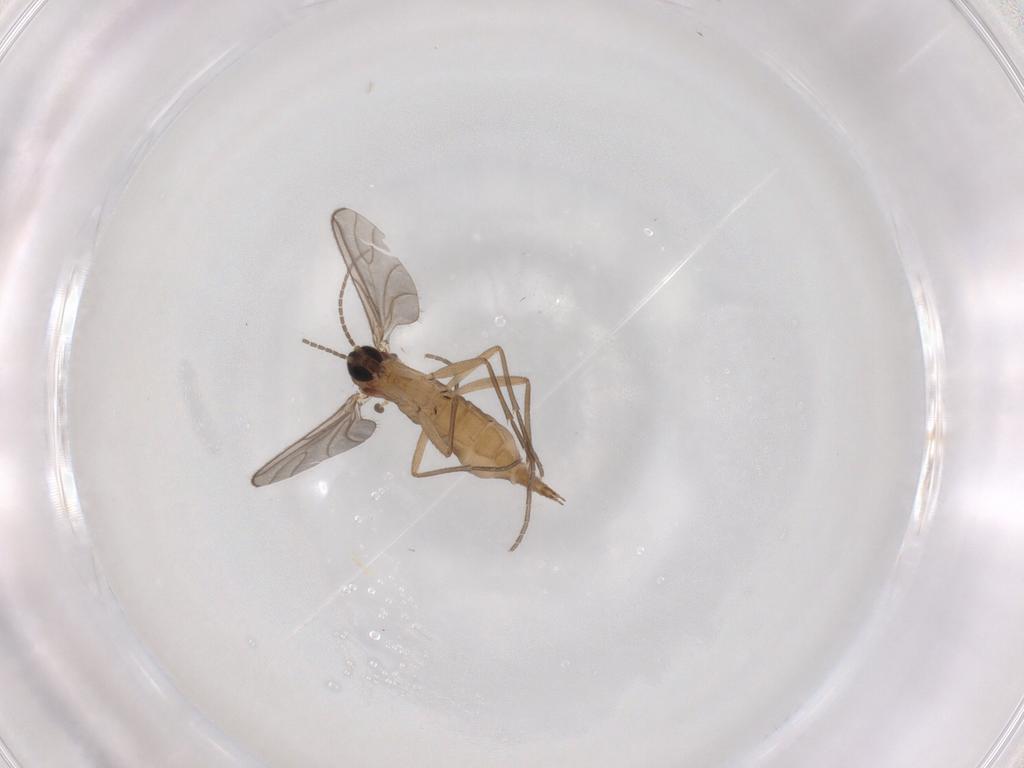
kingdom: Animalia
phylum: Arthropoda
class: Insecta
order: Diptera
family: Sciaridae
